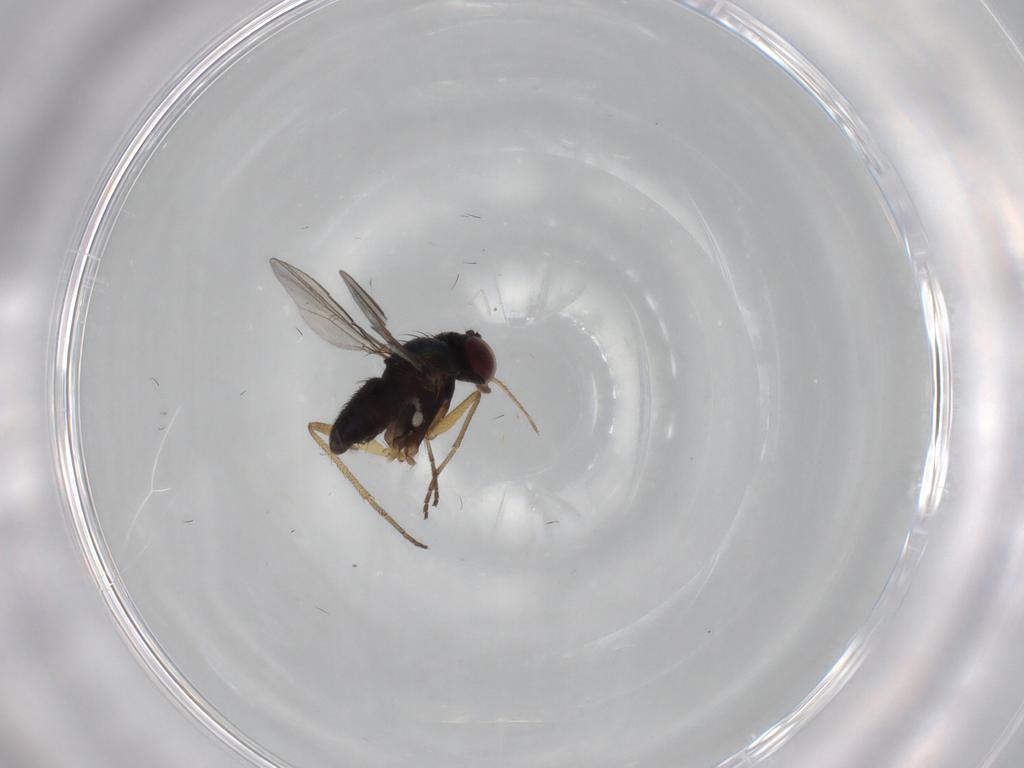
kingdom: Animalia
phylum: Arthropoda
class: Insecta
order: Diptera
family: Dolichopodidae
